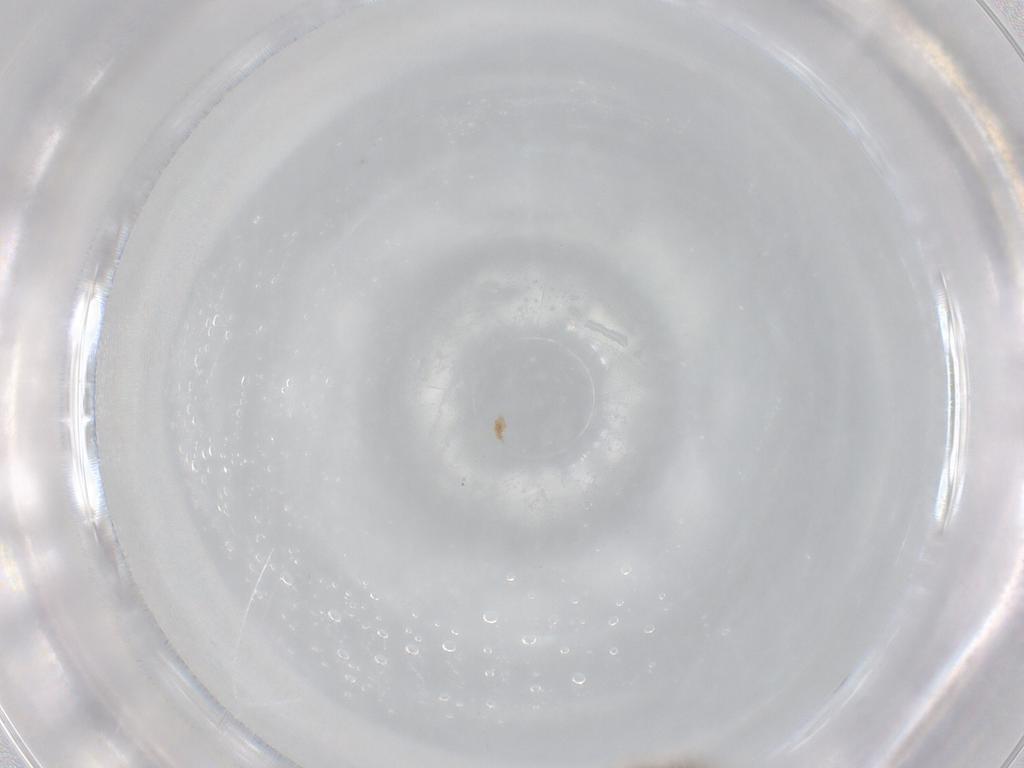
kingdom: Animalia
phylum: Arthropoda
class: Insecta
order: Diptera
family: Chironomidae
